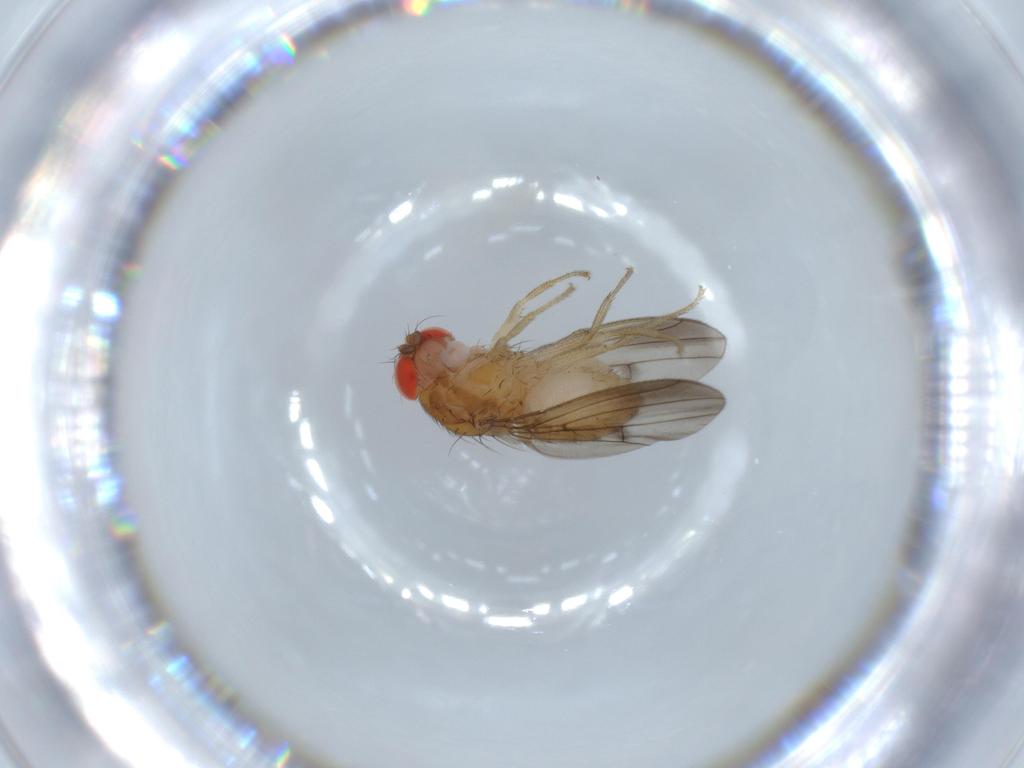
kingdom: Animalia
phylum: Arthropoda
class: Insecta
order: Diptera
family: Drosophilidae
